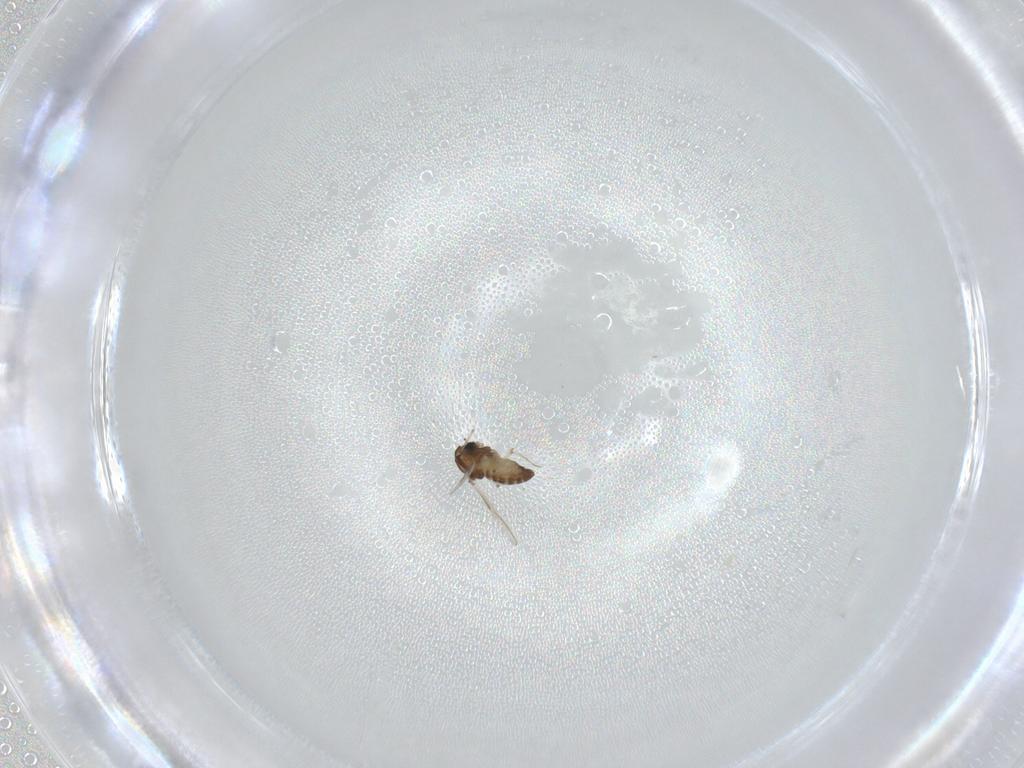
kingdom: Animalia
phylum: Arthropoda
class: Insecta
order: Diptera
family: Chironomidae
